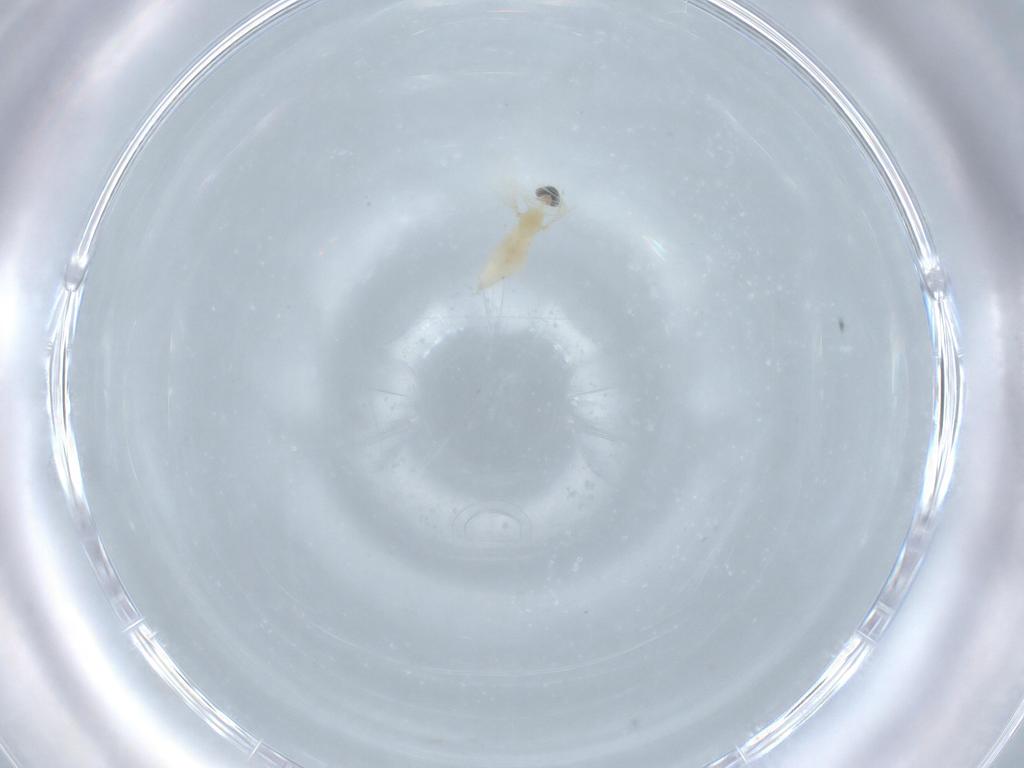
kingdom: Animalia
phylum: Arthropoda
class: Insecta
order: Diptera
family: Cecidomyiidae
